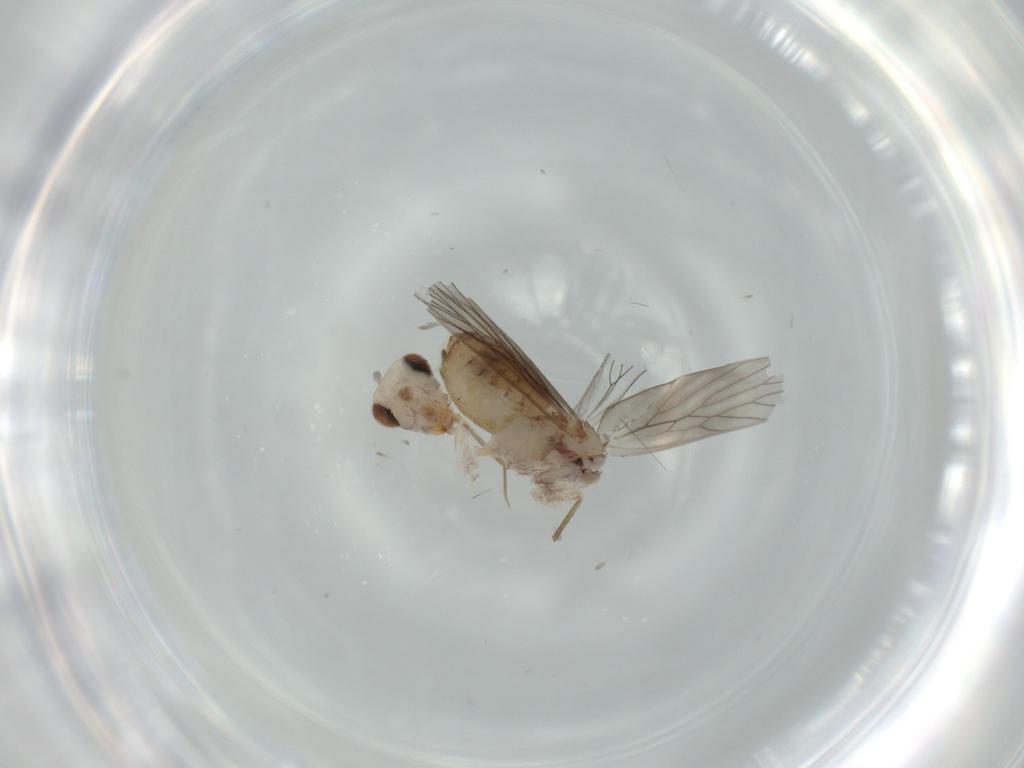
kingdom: Animalia
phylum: Arthropoda
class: Insecta
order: Psocodea
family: Lepidopsocidae
